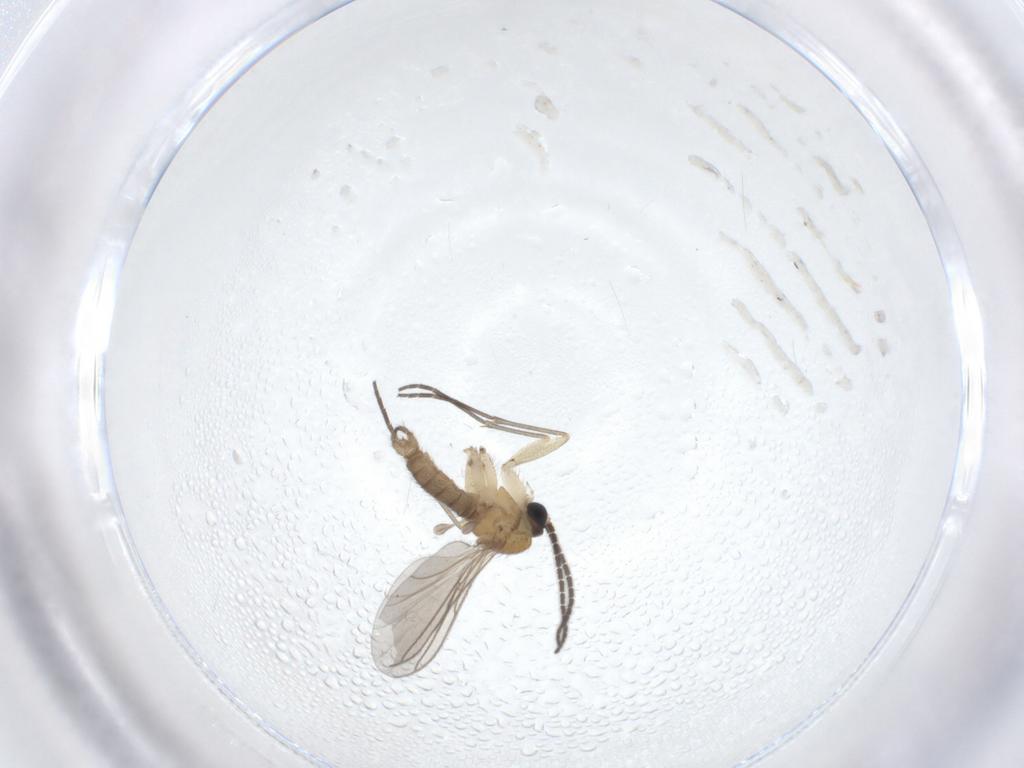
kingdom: Animalia
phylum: Arthropoda
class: Insecta
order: Diptera
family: Sciaridae
